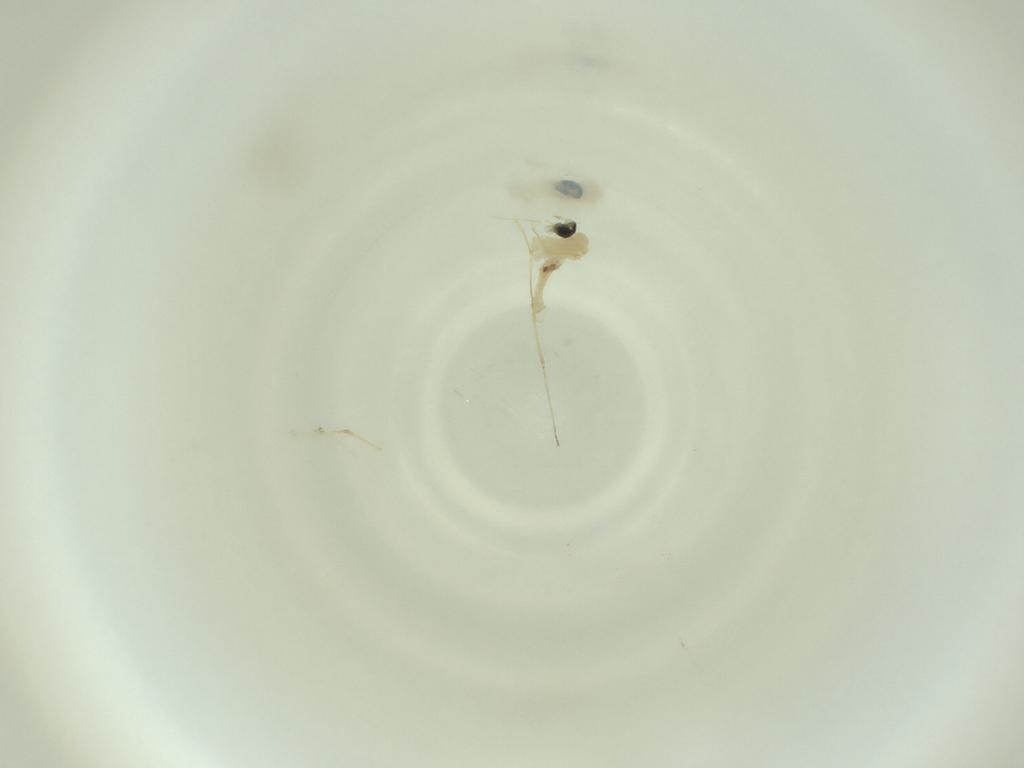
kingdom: Animalia
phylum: Arthropoda
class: Insecta
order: Diptera
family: Cecidomyiidae
